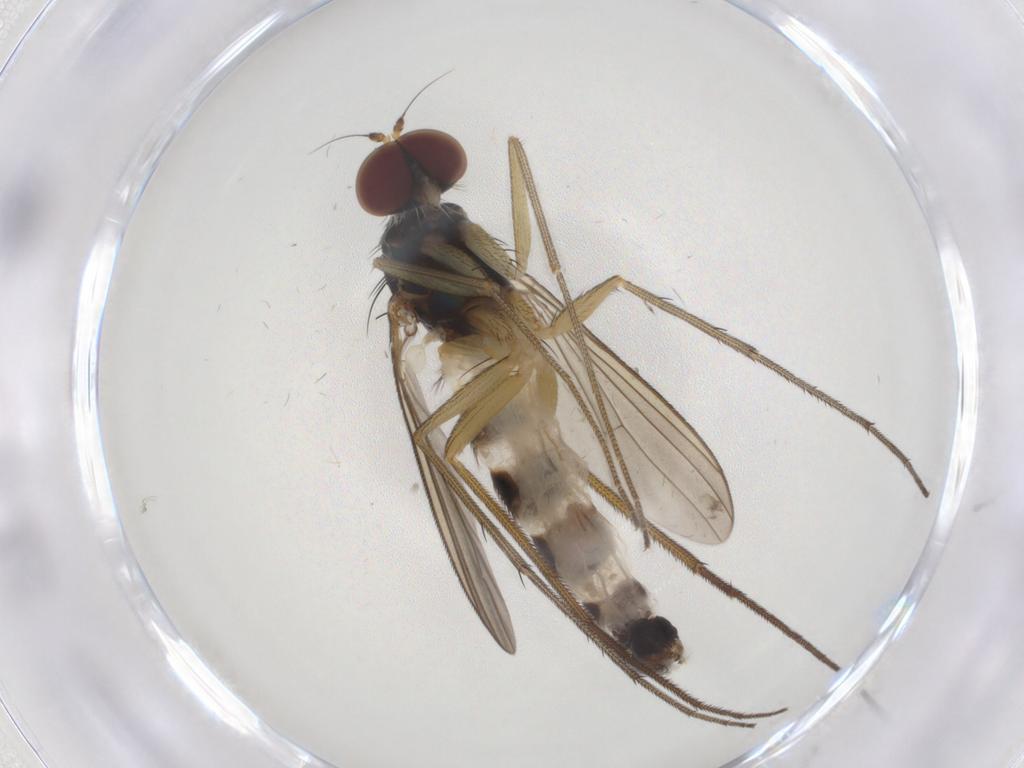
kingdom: Animalia
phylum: Arthropoda
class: Insecta
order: Diptera
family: Dolichopodidae
